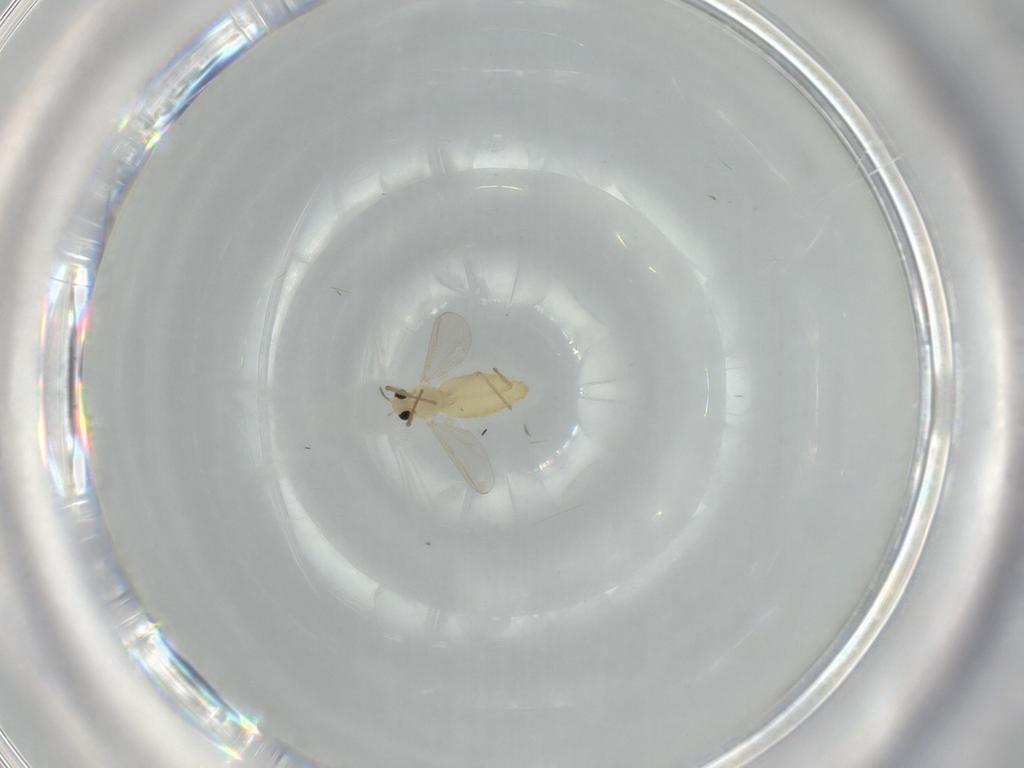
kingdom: Animalia
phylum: Arthropoda
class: Insecta
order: Diptera
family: Chironomidae
